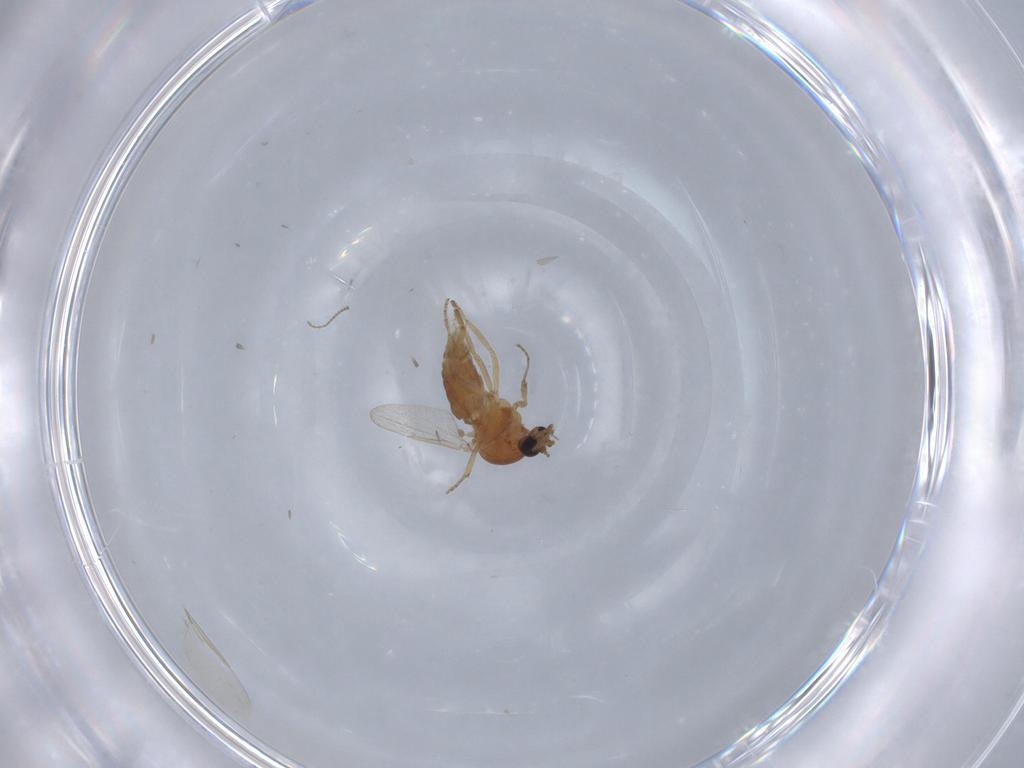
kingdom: Animalia
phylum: Arthropoda
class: Insecta
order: Diptera
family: Ceratopogonidae
